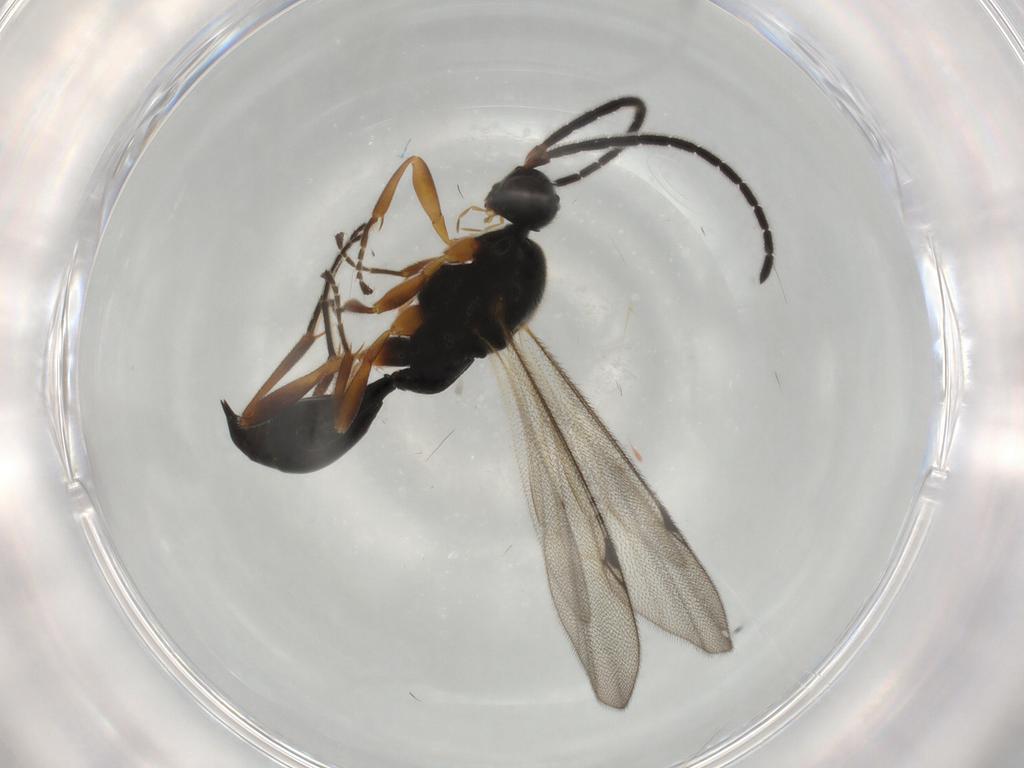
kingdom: Animalia
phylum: Arthropoda
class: Insecta
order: Hymenoptera
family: Proctotrupidae
